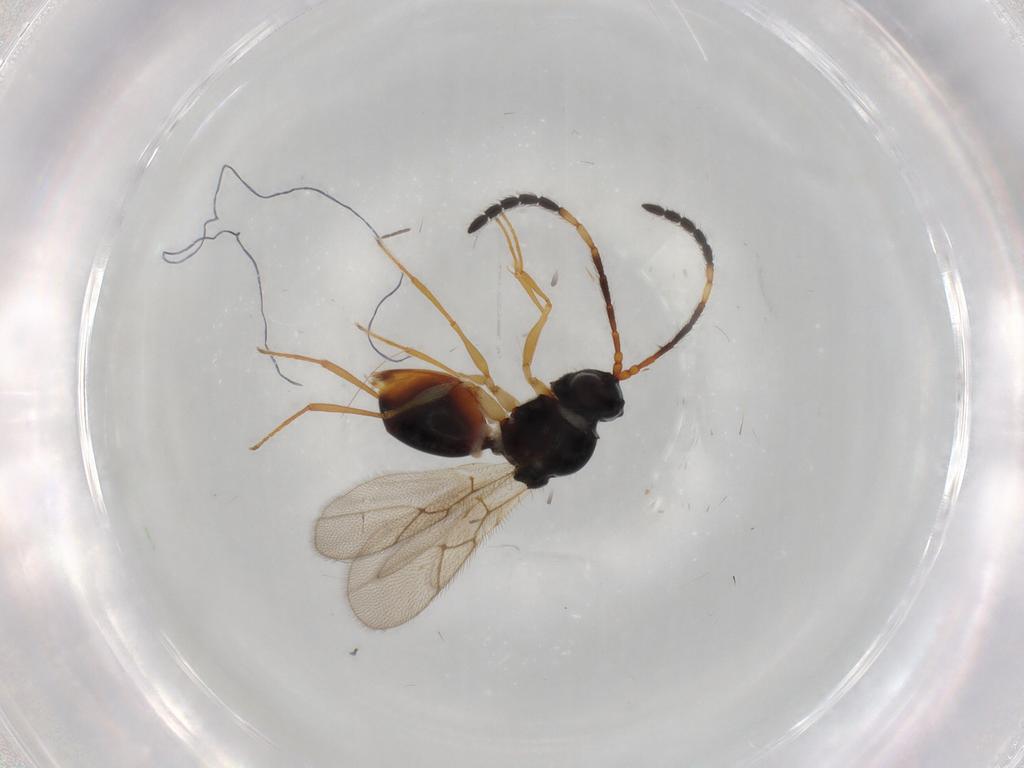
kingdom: Animalia
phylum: Arthropoda
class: Insecta
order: Hymenoptera
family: Figitidae
